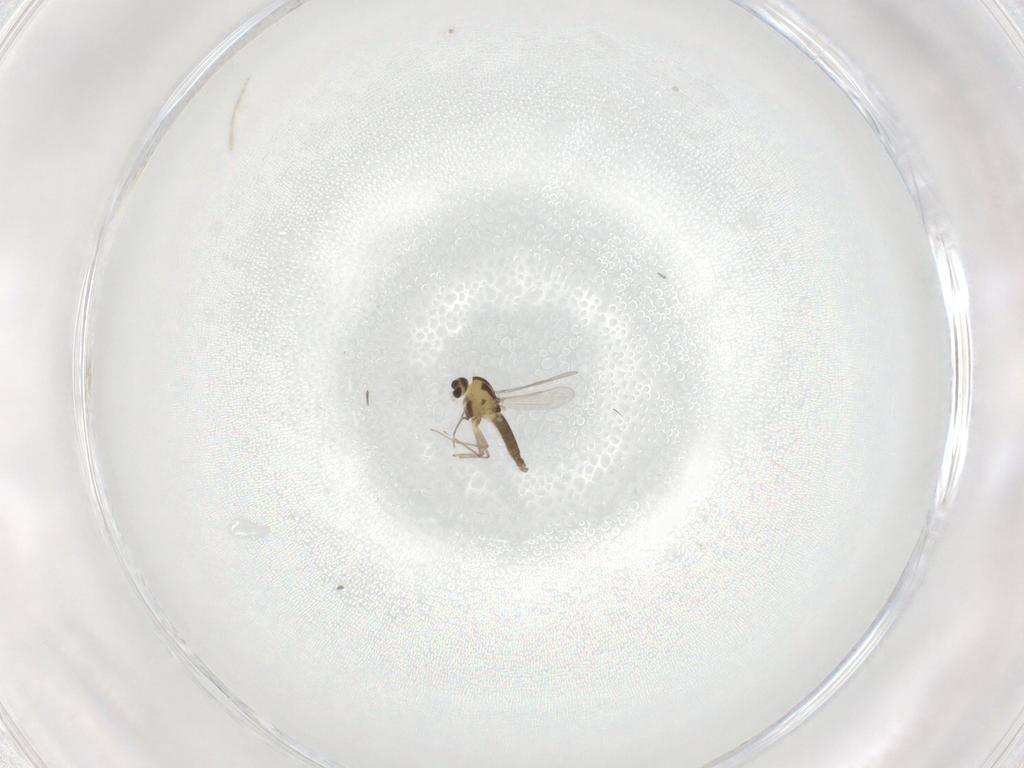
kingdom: Animalia
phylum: Arthropoda
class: Insecta
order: Diptera
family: Chironomidae
